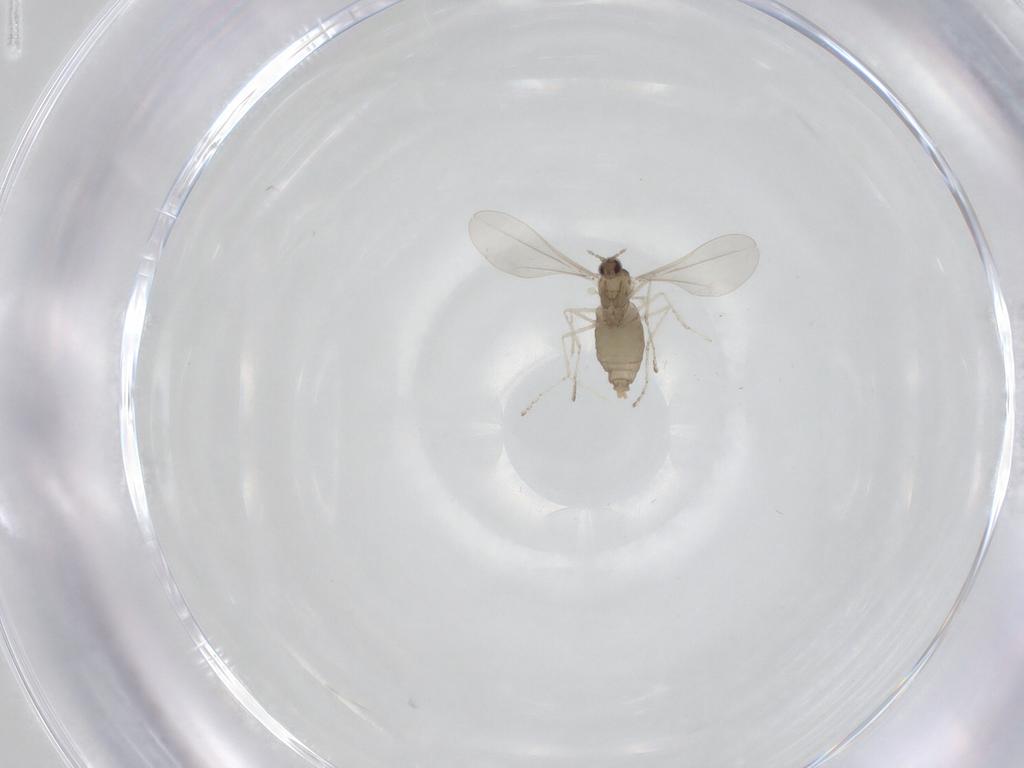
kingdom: Animalia
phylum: Arthropoda
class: Insecta
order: Diptera
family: Cecidomyiidae
